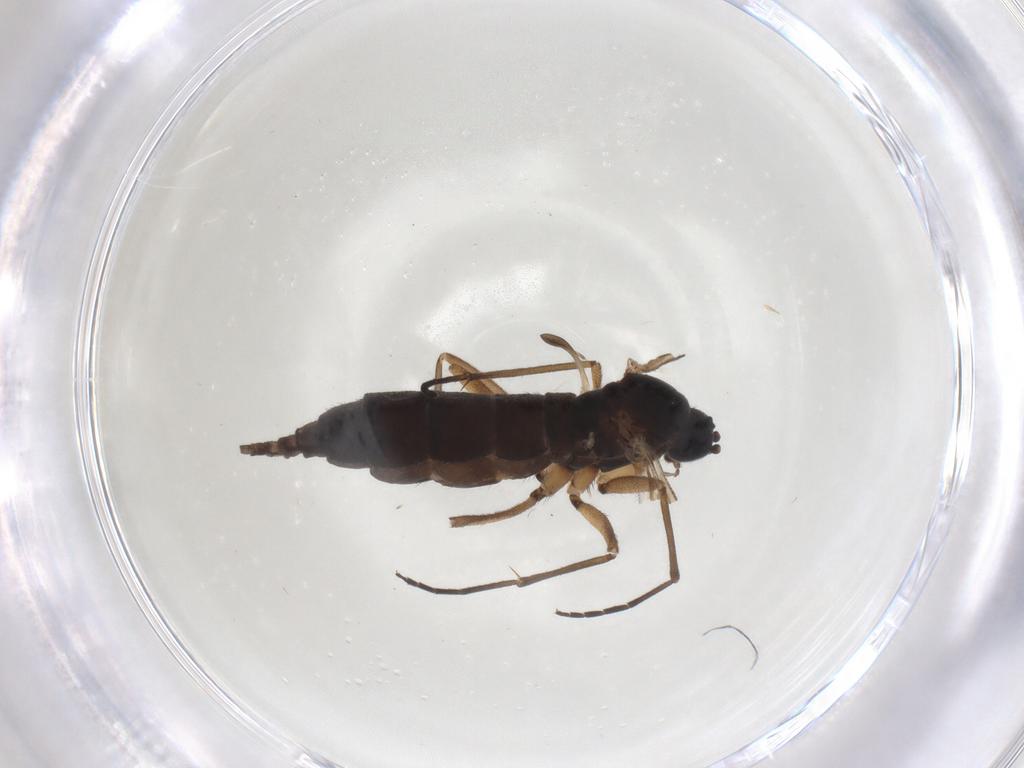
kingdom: Animalia
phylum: Arthropoda
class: Insecta
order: Diptera
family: Sciaridae
